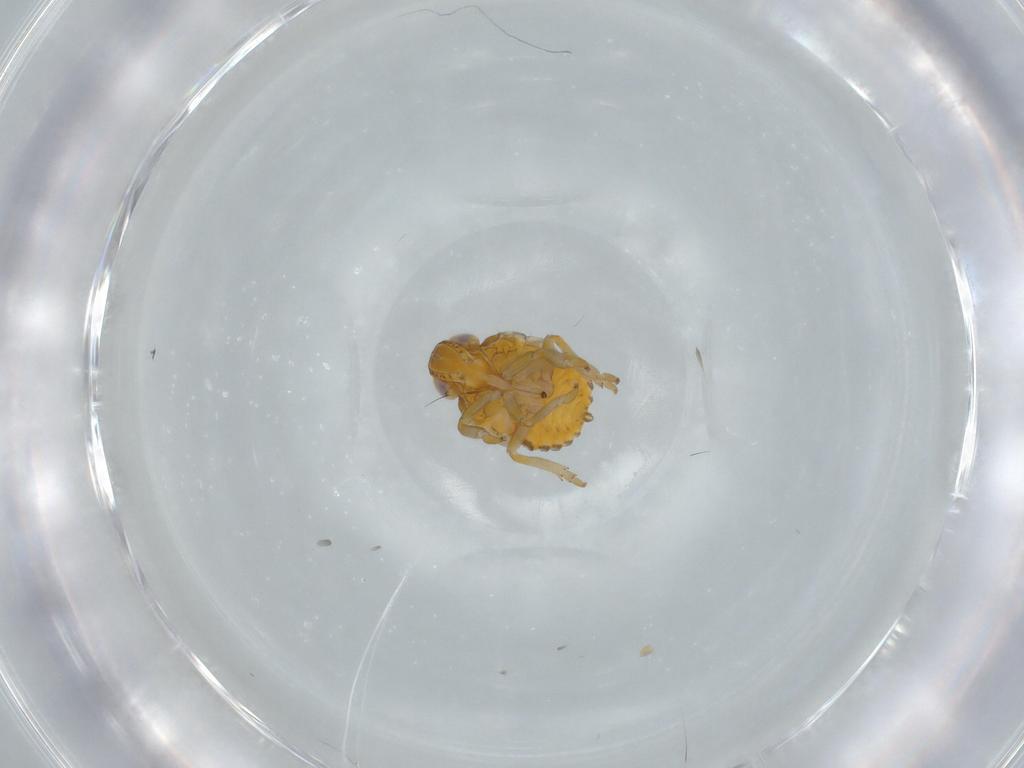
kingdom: Animalia
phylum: Arthropoda
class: Insecta
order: Hemiptera
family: Issidae
